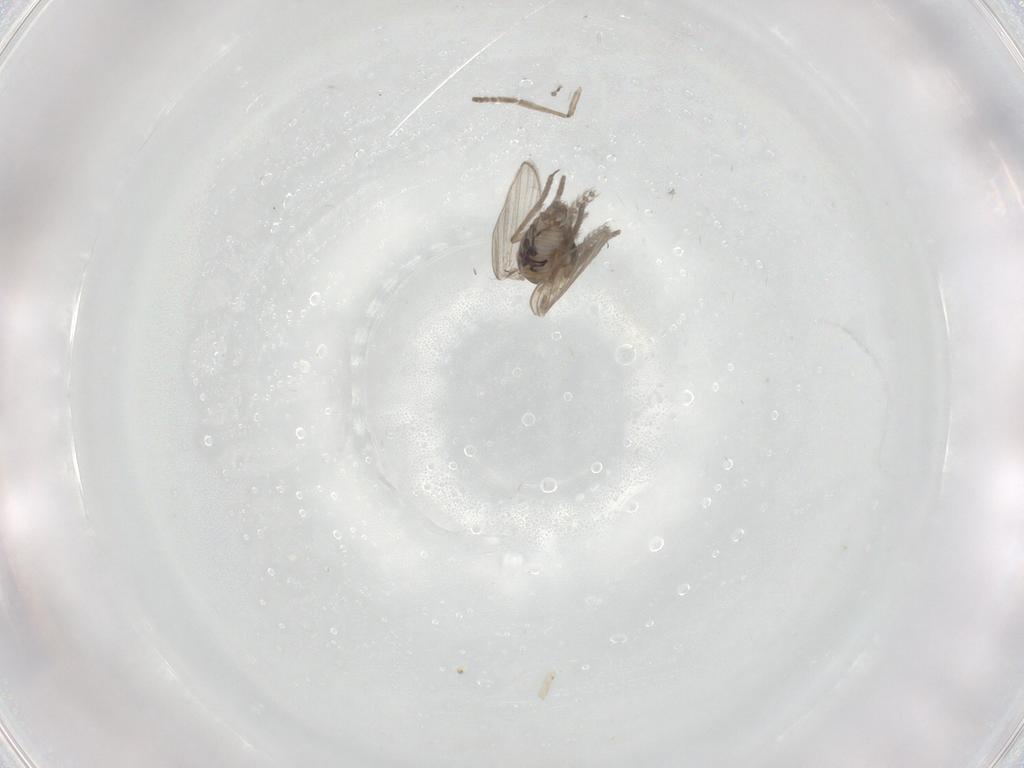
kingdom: Animalia
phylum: Arthropoda
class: Insecta
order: Diptera
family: Psychodidae
